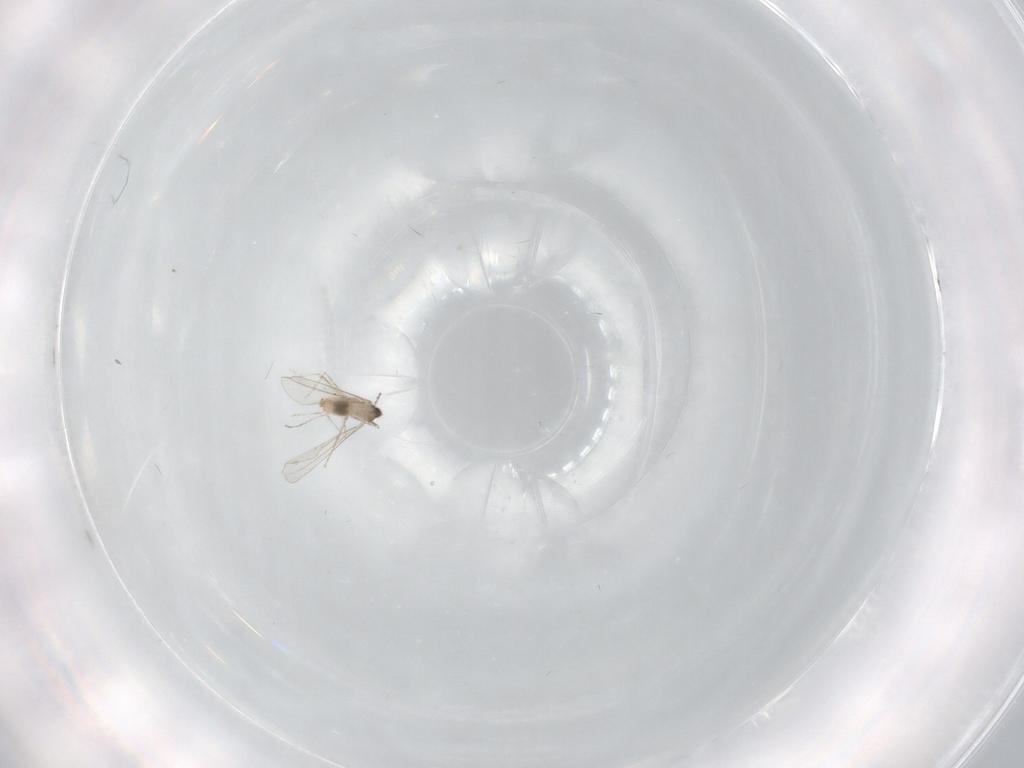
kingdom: Animalia
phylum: Arthropoda
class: Insecta
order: Diptera
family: Cecidomyiidae
